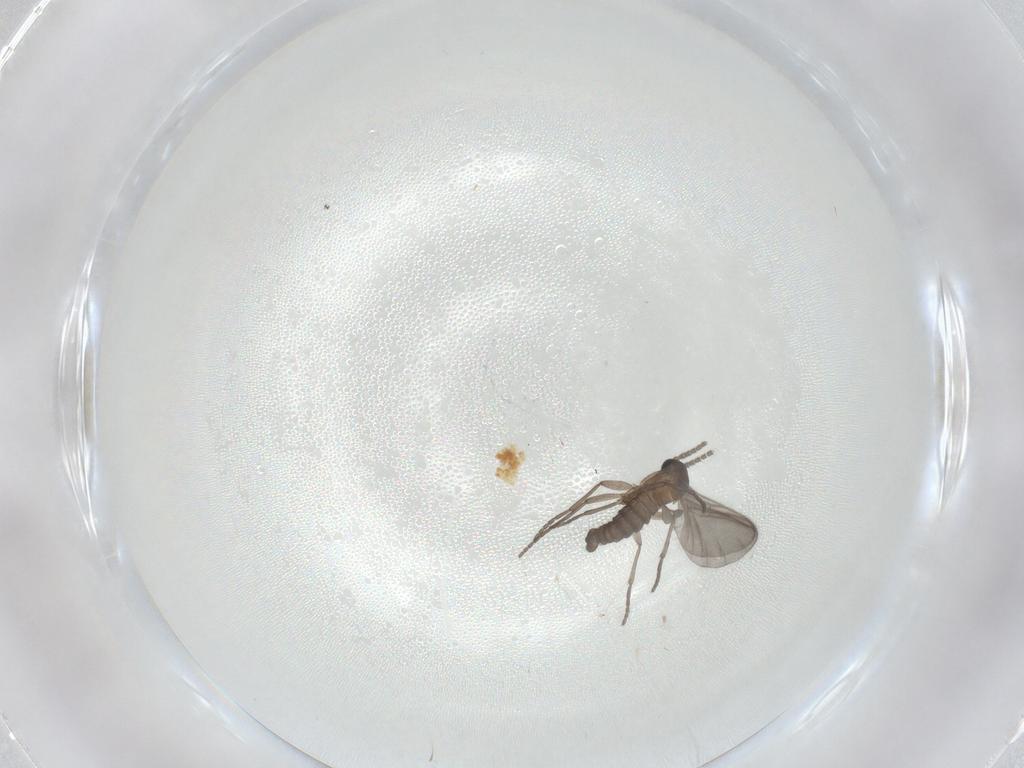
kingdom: Animalia
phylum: Arthropoda
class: Insecta
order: Diptera
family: Sciaridae
